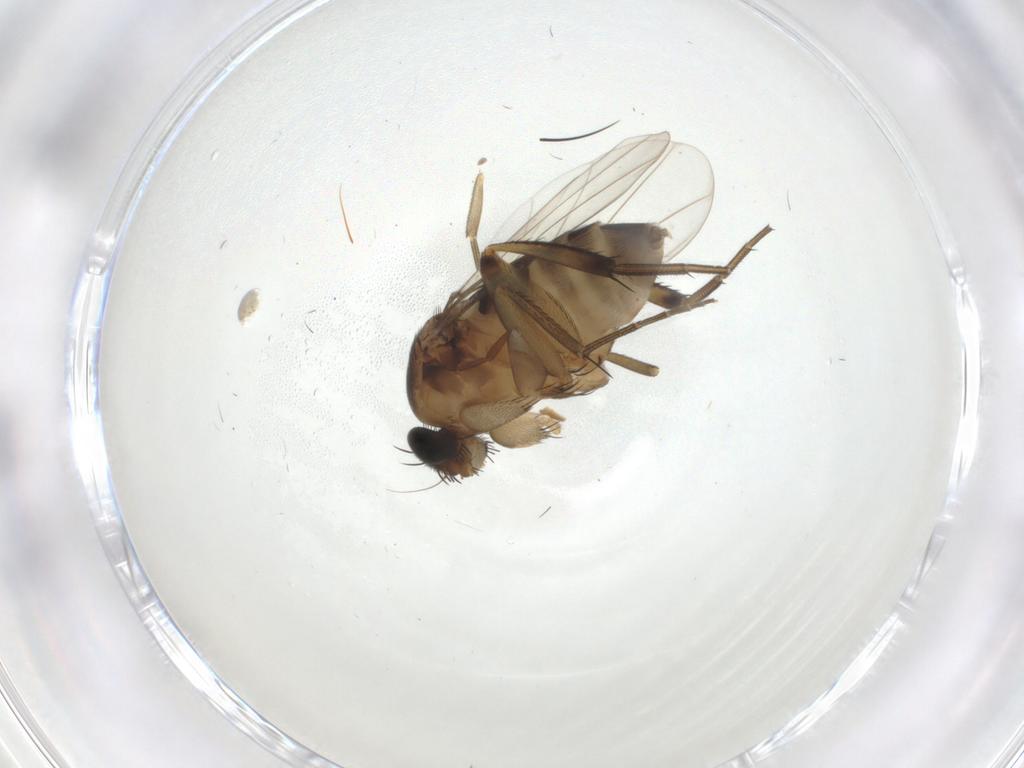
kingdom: Animalia
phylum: Arthropoda
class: Insecta
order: Diptera
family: Phoridae
